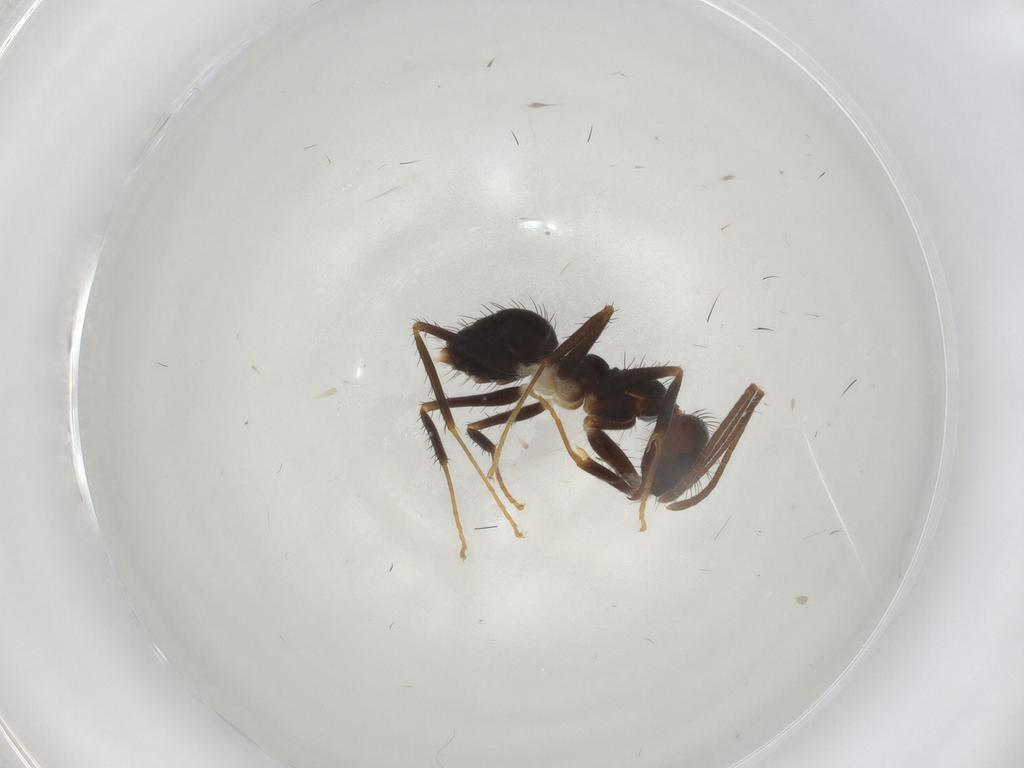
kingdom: Animalia
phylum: Arthropoda
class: Insecta
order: Hymenoptera
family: Formicidae
